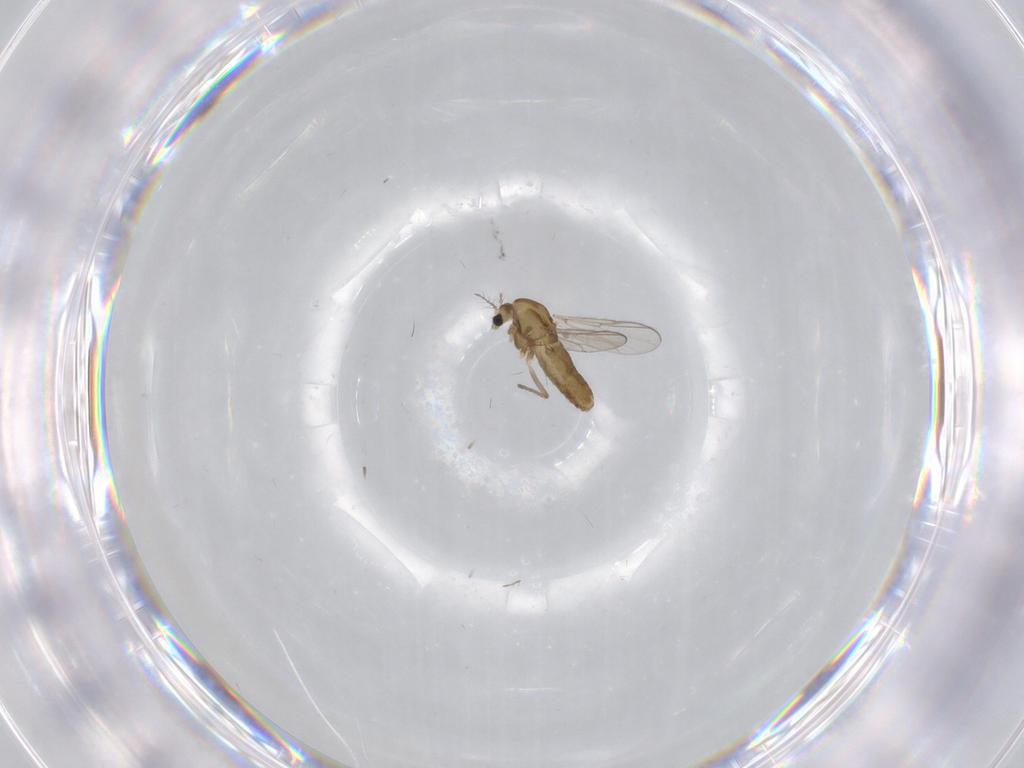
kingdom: Animalia
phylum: Arthropoda
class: Insecta
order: Diptera
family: Chironomidae
